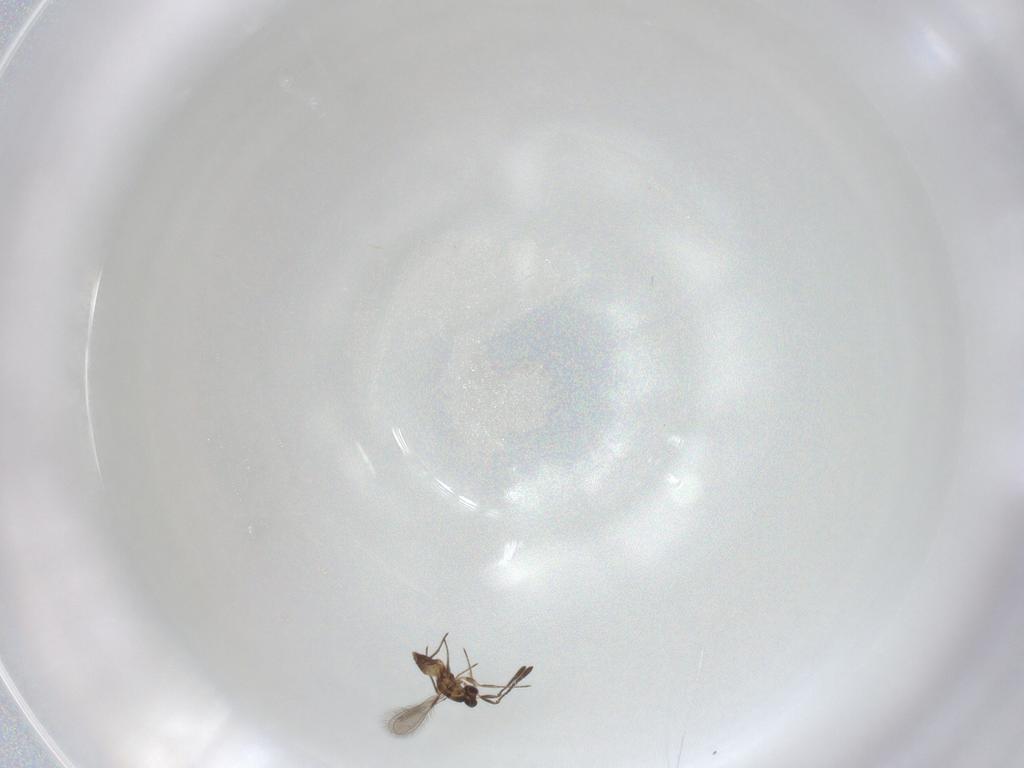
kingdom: Animalia
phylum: Arthropoda
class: Insecta
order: Hymenoptera
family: Mymaridae
